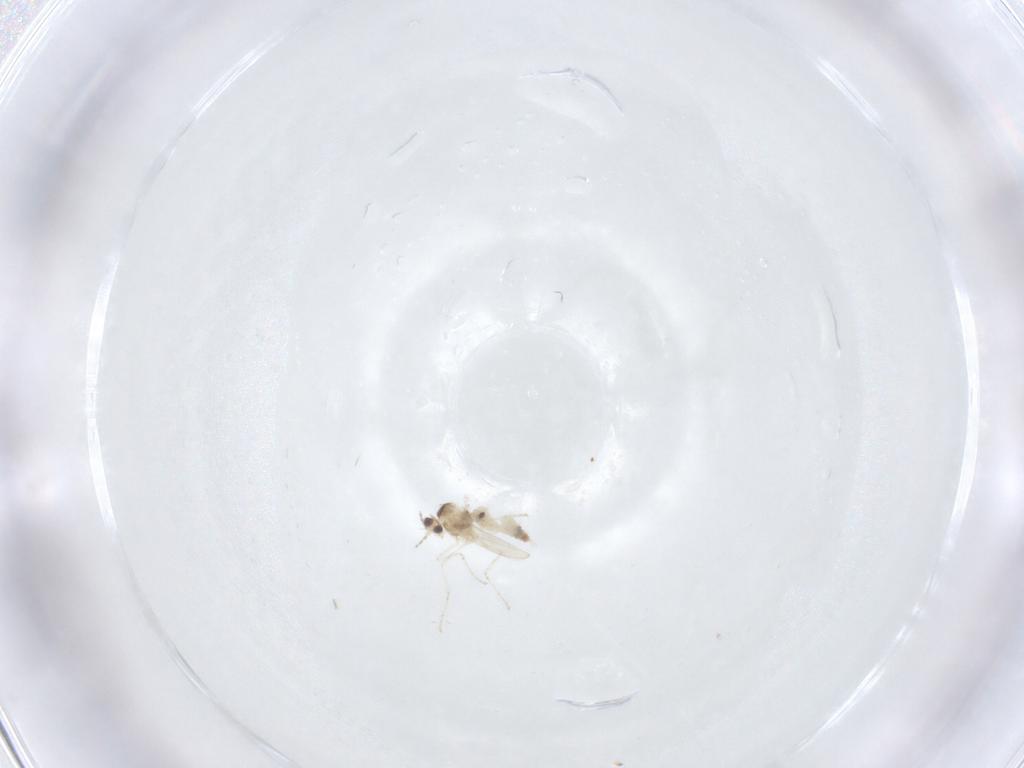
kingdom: Animalia
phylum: Arthropoda
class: Insecta
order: Diptera
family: Cecidomyiidae
